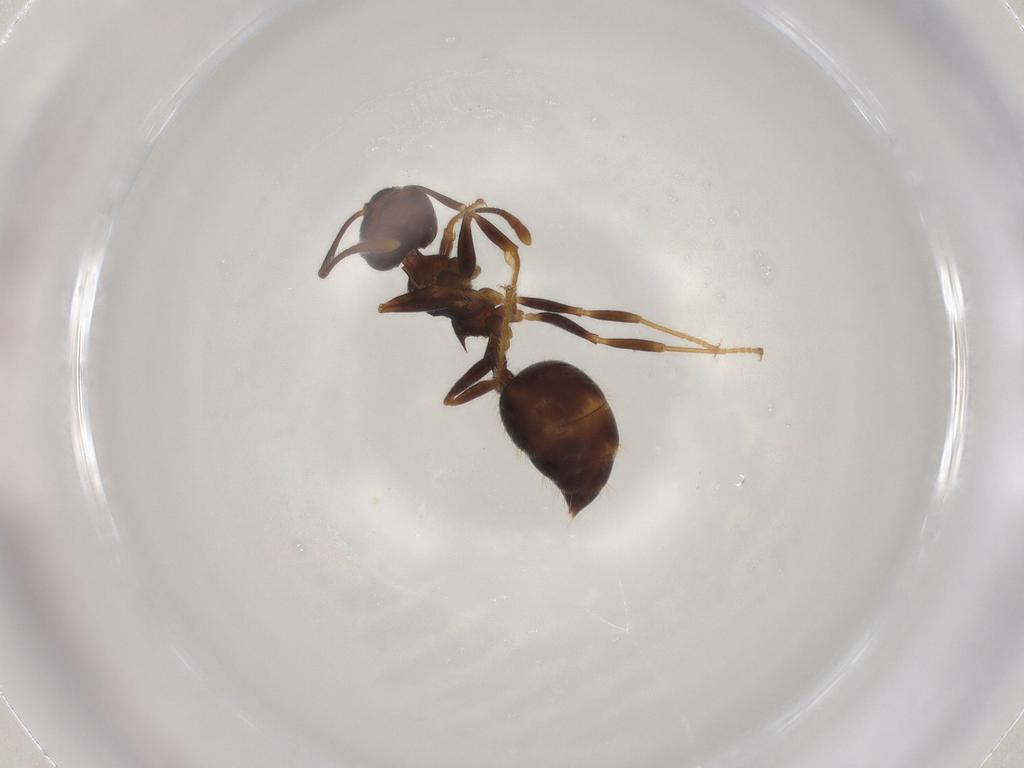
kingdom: Animalia
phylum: Arthropoda
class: Insecta
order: Hymenoptera
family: Formicidae
